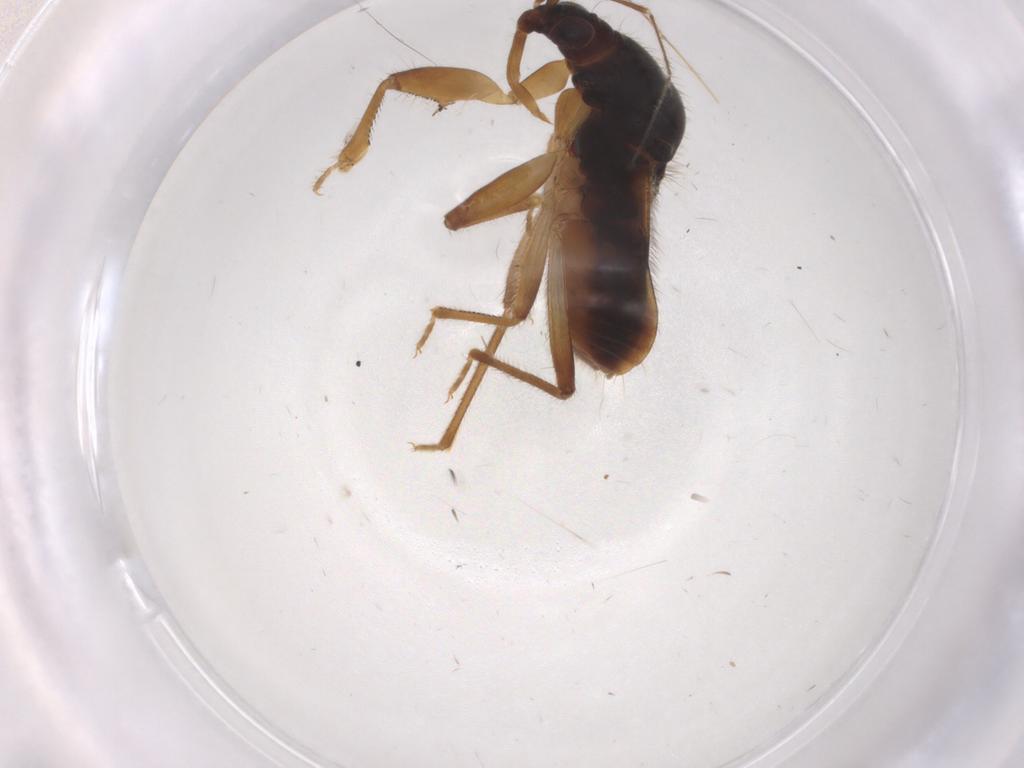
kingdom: Animalia
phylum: Arthropoda
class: Insecta
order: Hemiptera
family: Nabidae
